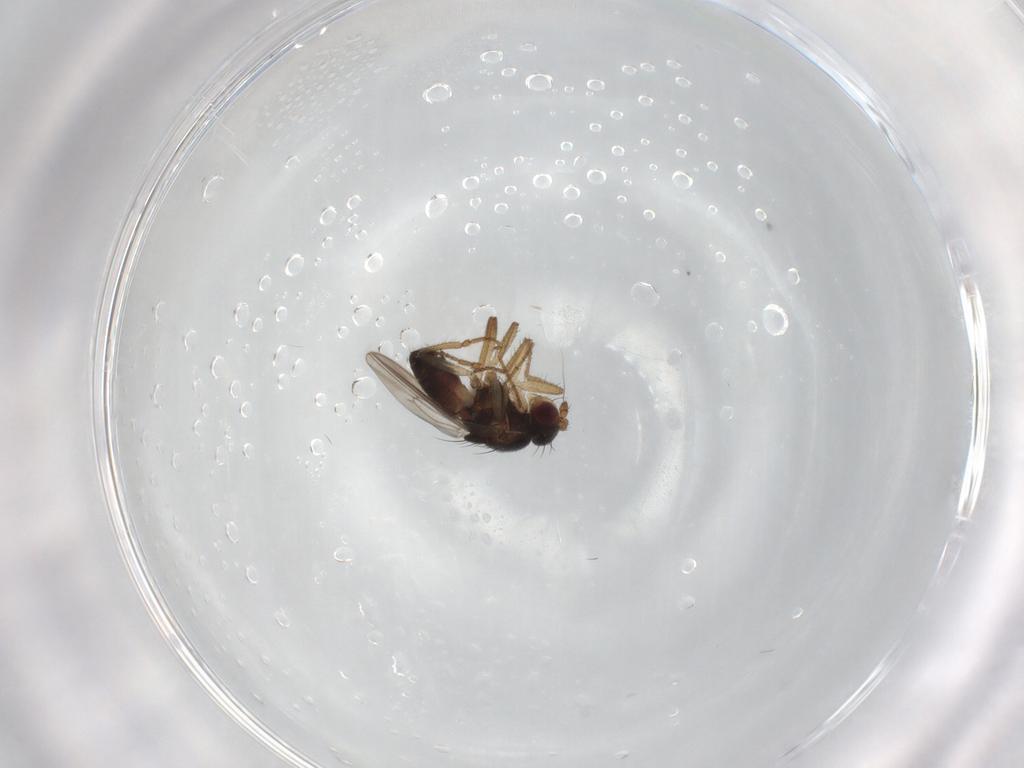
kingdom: Animalia
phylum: Arthropoda
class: Insecta
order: Diptera
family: Sphaeroceridae
